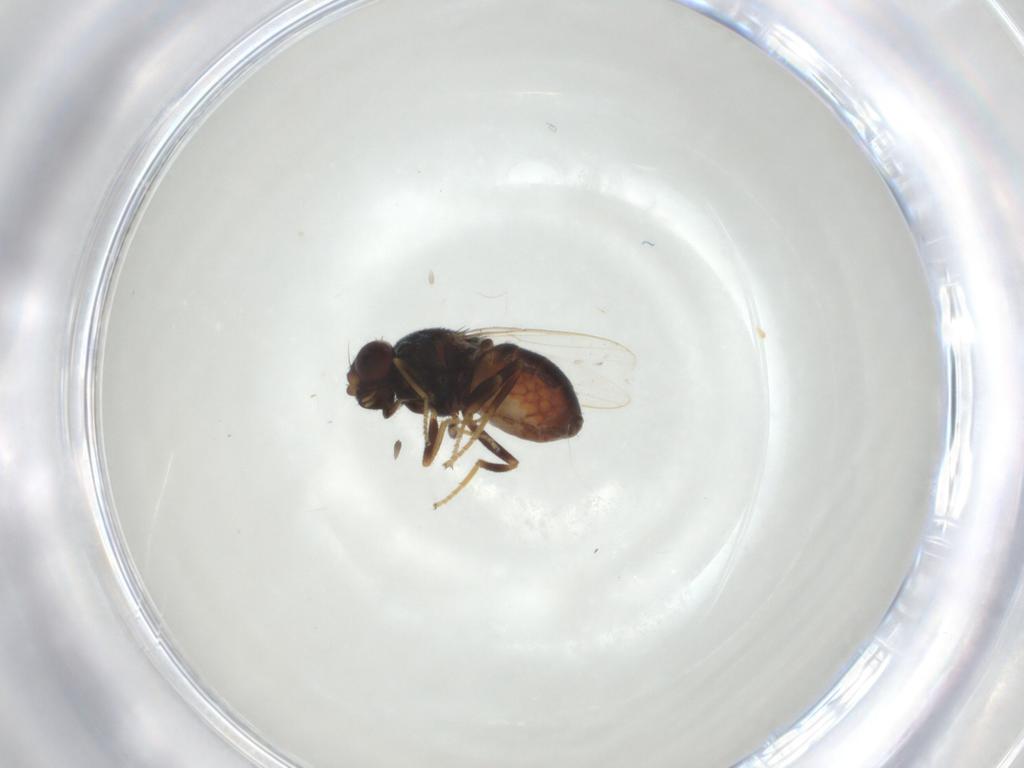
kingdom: Animalia
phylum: Arthropoda
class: Insecta
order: Diptera
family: Chloropidae
